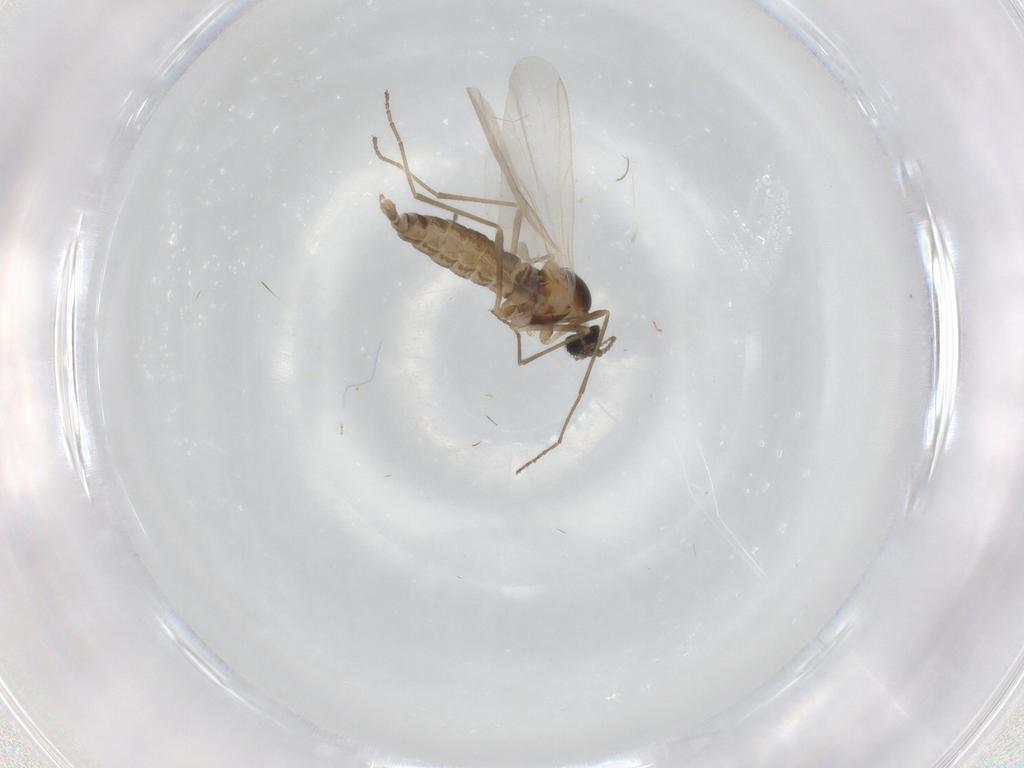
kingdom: Animalia
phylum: Arthropoda
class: Insecta
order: Diptera
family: Cecidomyiidae
